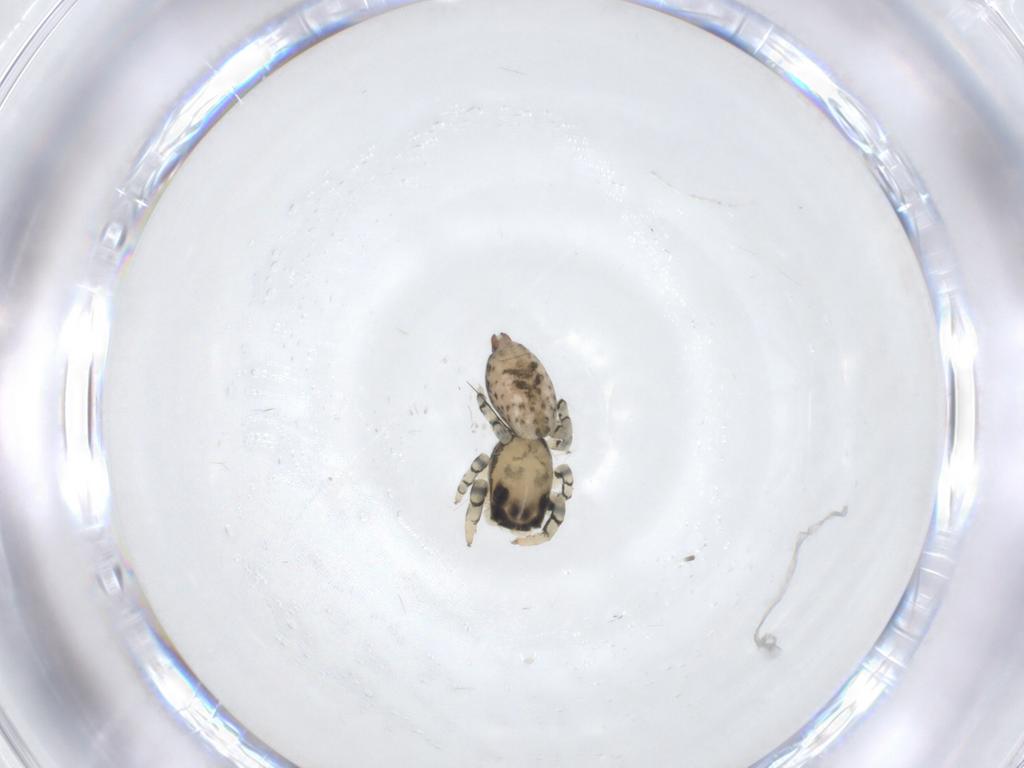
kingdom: Animalia
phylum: Arthropoda
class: Arachnida
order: Araneae
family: Salticidae
